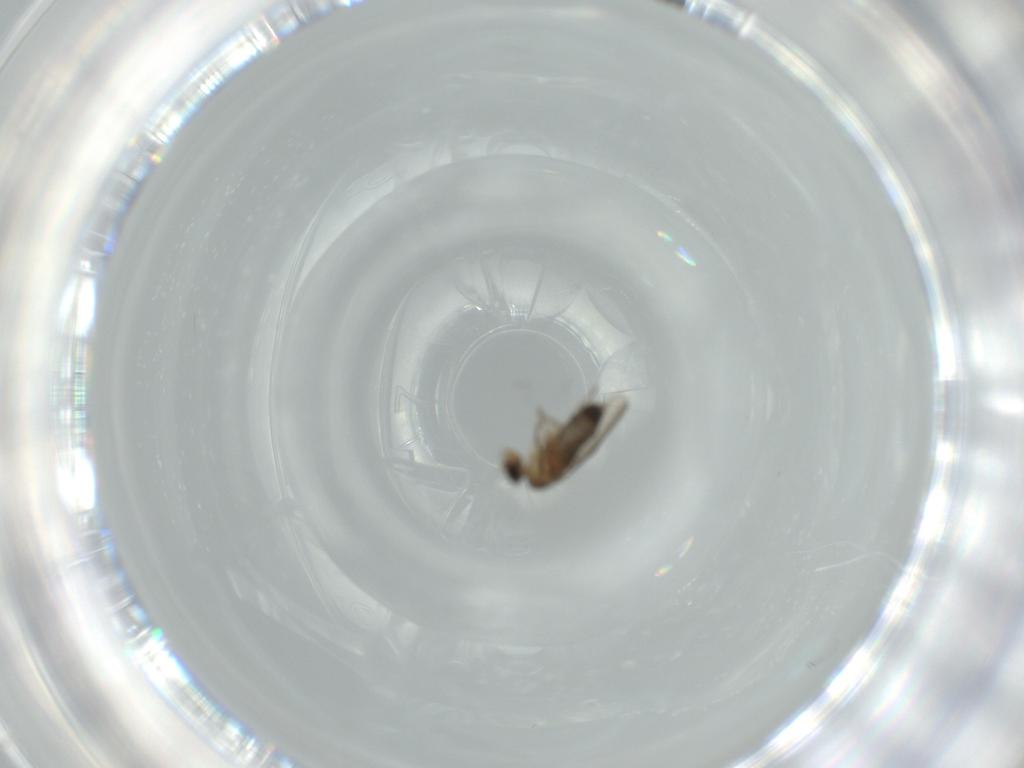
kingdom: Animalia
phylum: Arthropoda
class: Insecta
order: Diptera
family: Phoridae
